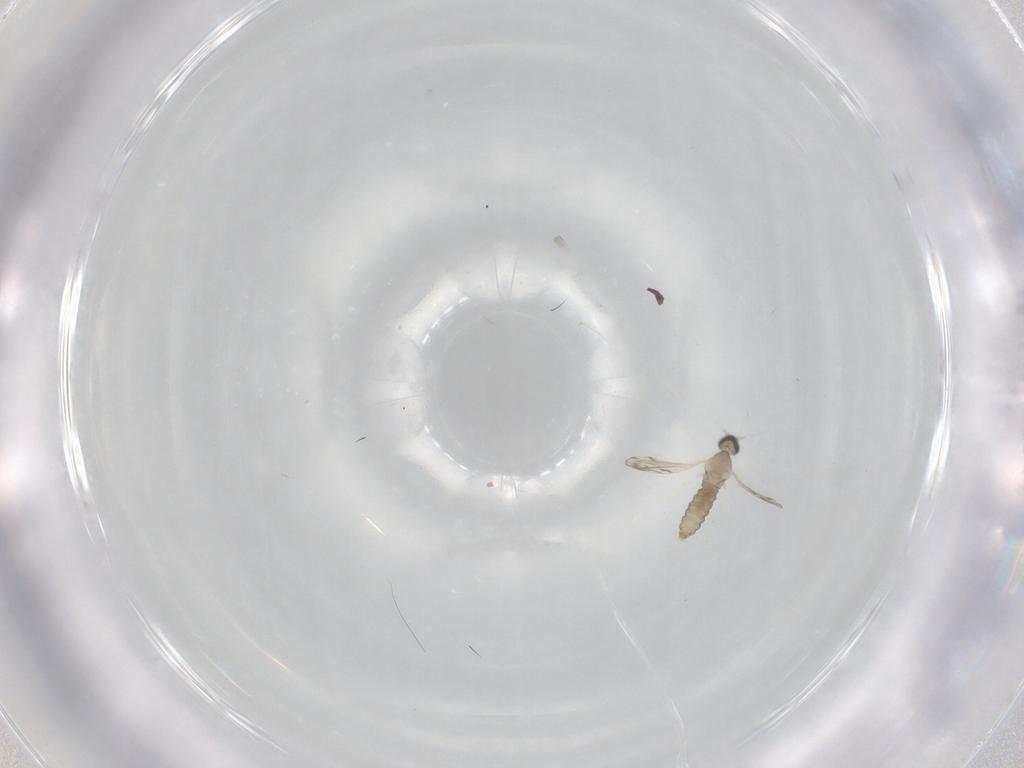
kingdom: Animalia
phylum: Arthropoda
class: Insecta
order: Diptera
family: Cecidomyiidae
